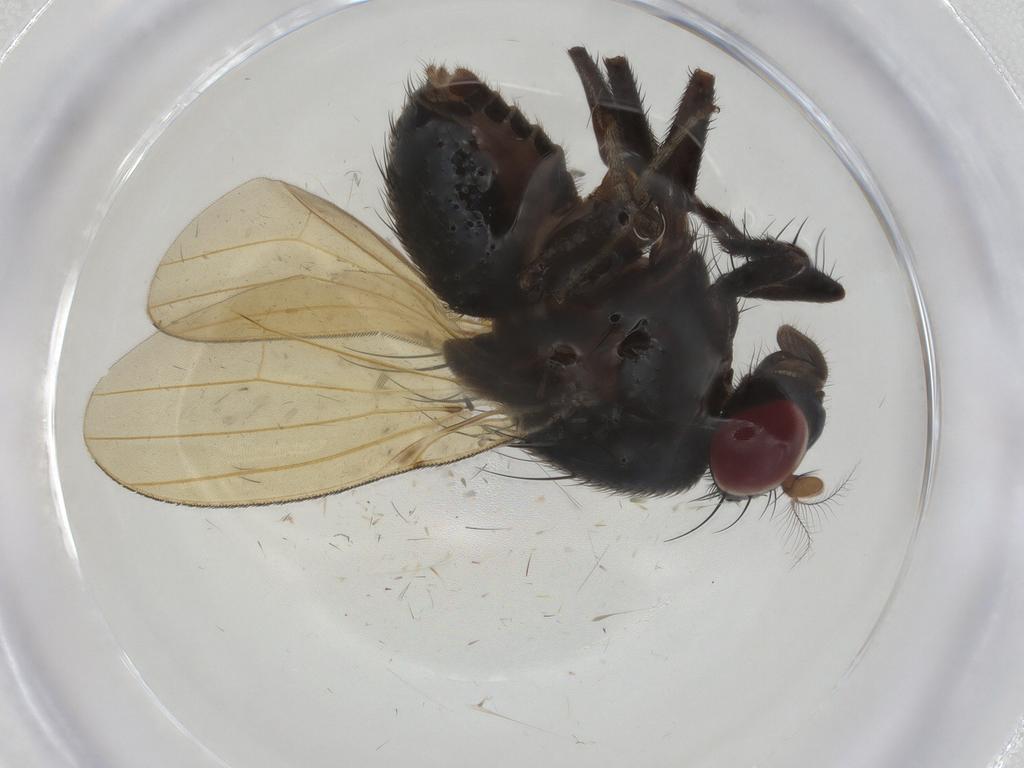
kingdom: Animalia
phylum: Arthropoda
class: Insecta
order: Diptera
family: Sciaridae
